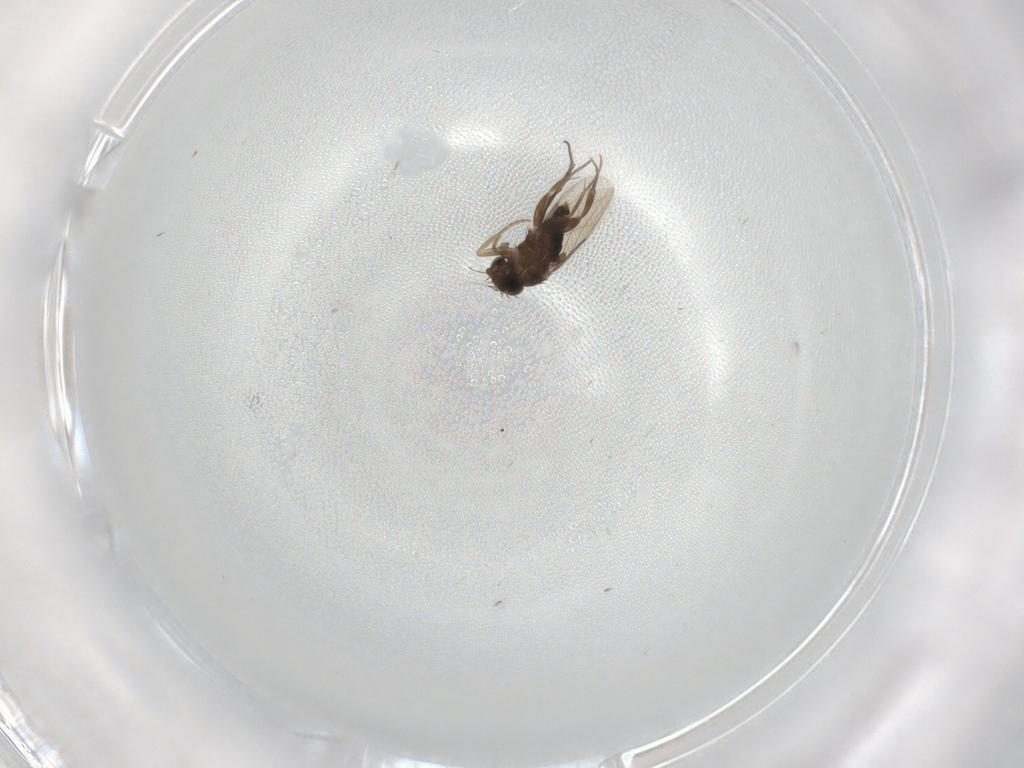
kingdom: Animalia
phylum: Arthropoda
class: Insecta
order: Diptera
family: Phoridae
